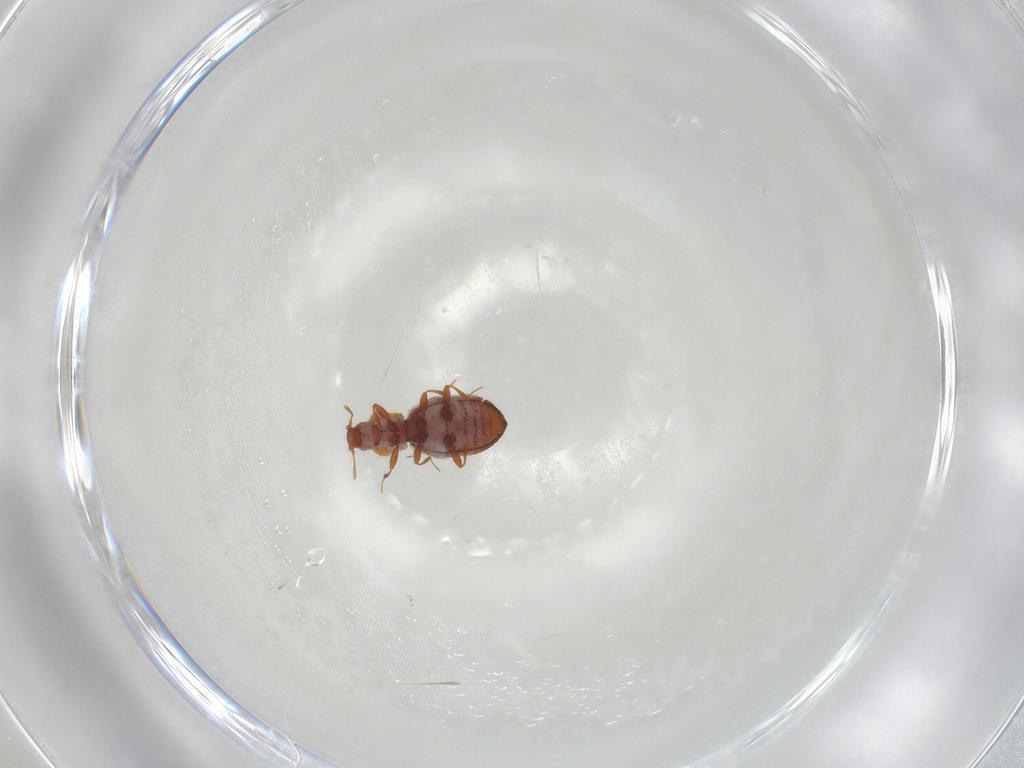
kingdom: Animalia
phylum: Arthropoda
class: Insecta
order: Coleoptera
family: Latridiidae
